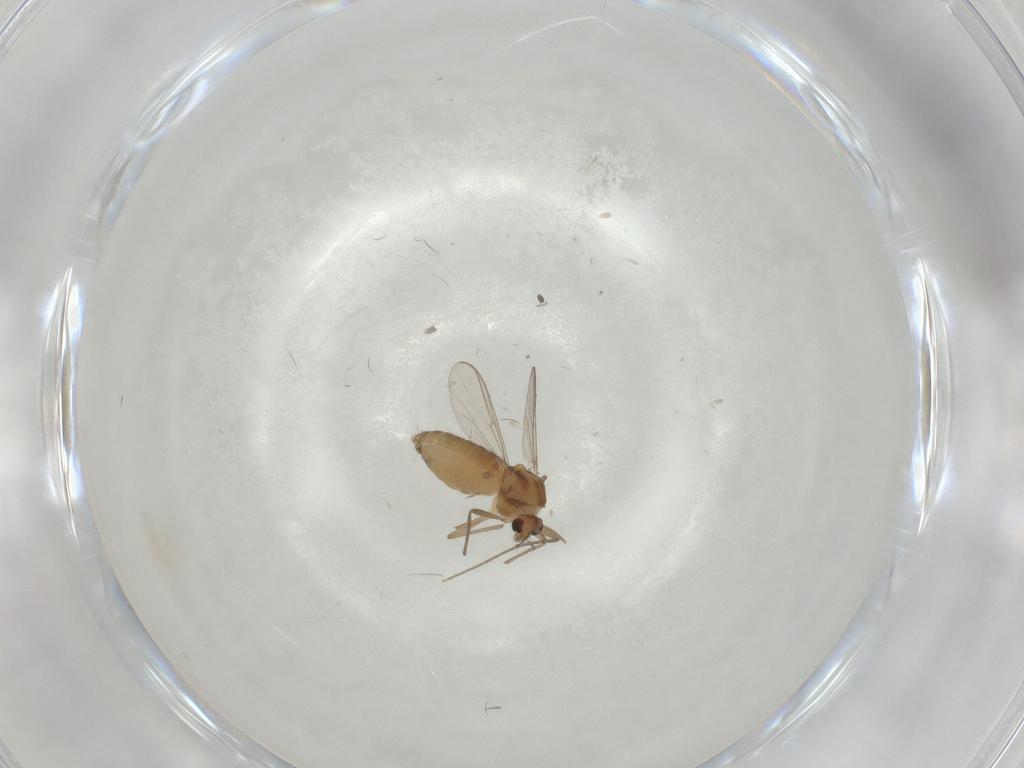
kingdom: Animalia
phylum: Arthropoda
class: Insecta
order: Diptera
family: Chironomidae
